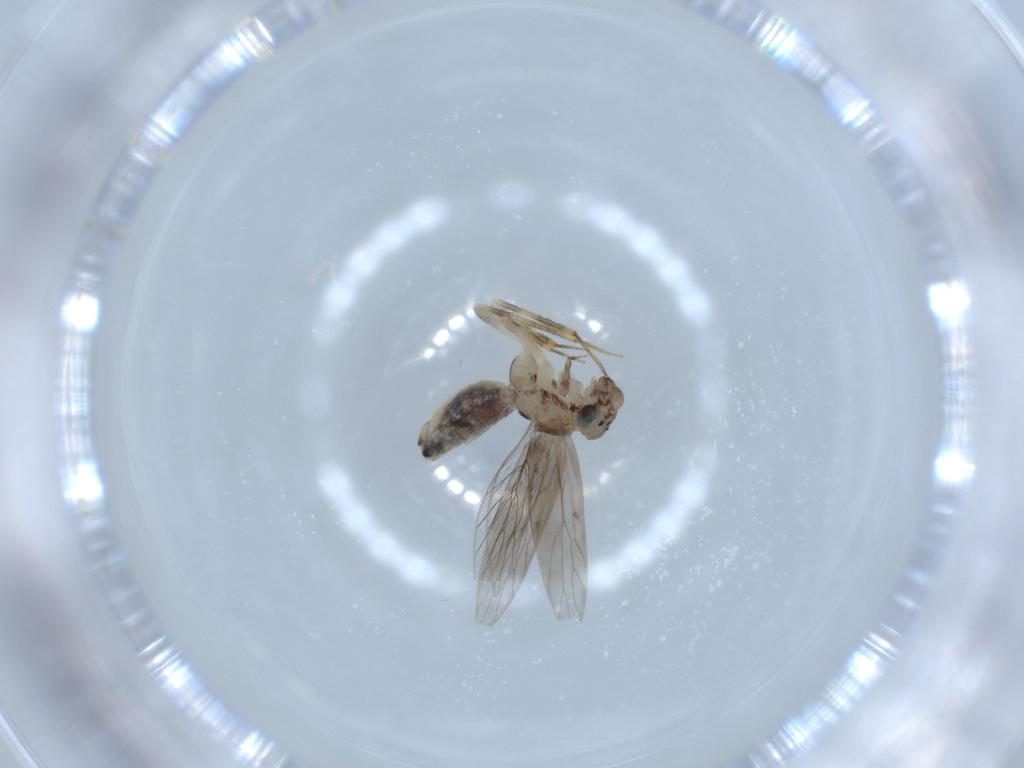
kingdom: Animalia
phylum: Arthropoda
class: Insecta
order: Psocodea
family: Lepidopsocidae
